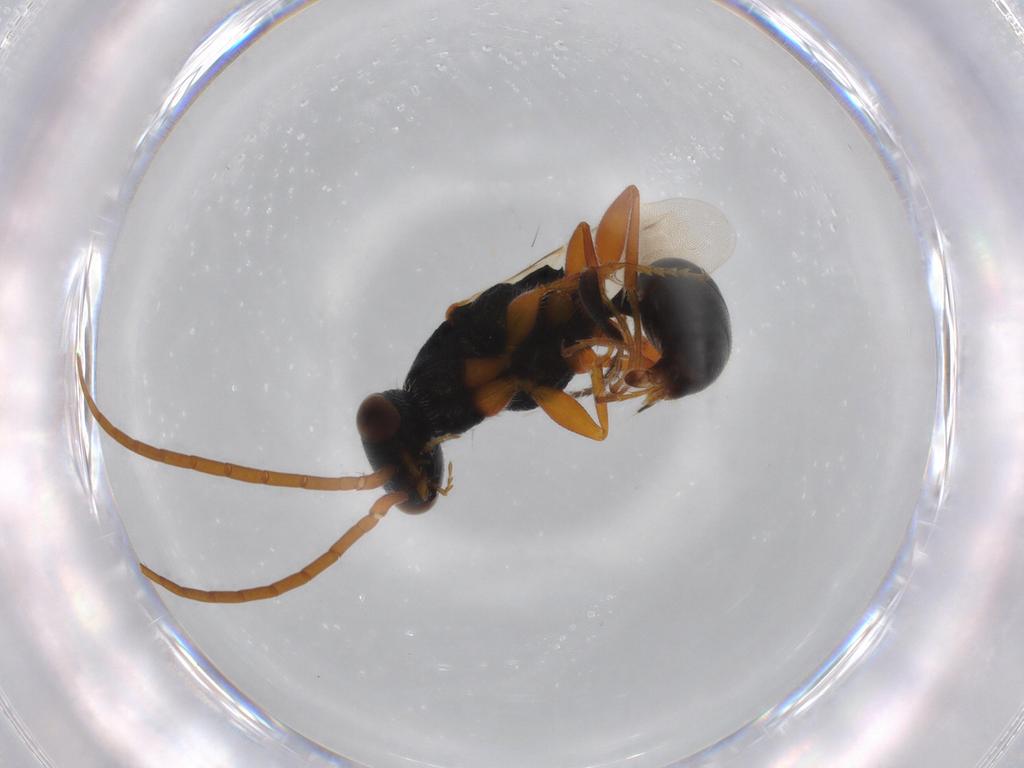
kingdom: Animalia
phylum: Arthropoda
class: Insecta
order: Hymenoptera
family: Bethylidae
